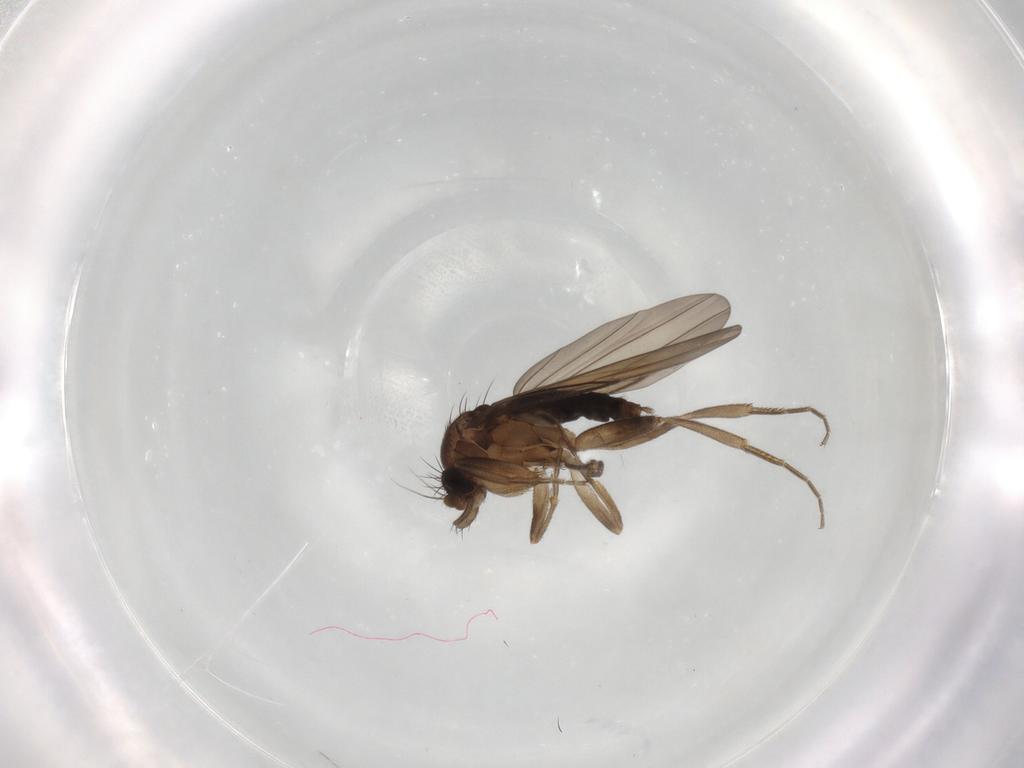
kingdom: Animalia
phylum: Arthropoda
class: Insecta
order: Diptera
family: Phoridae
